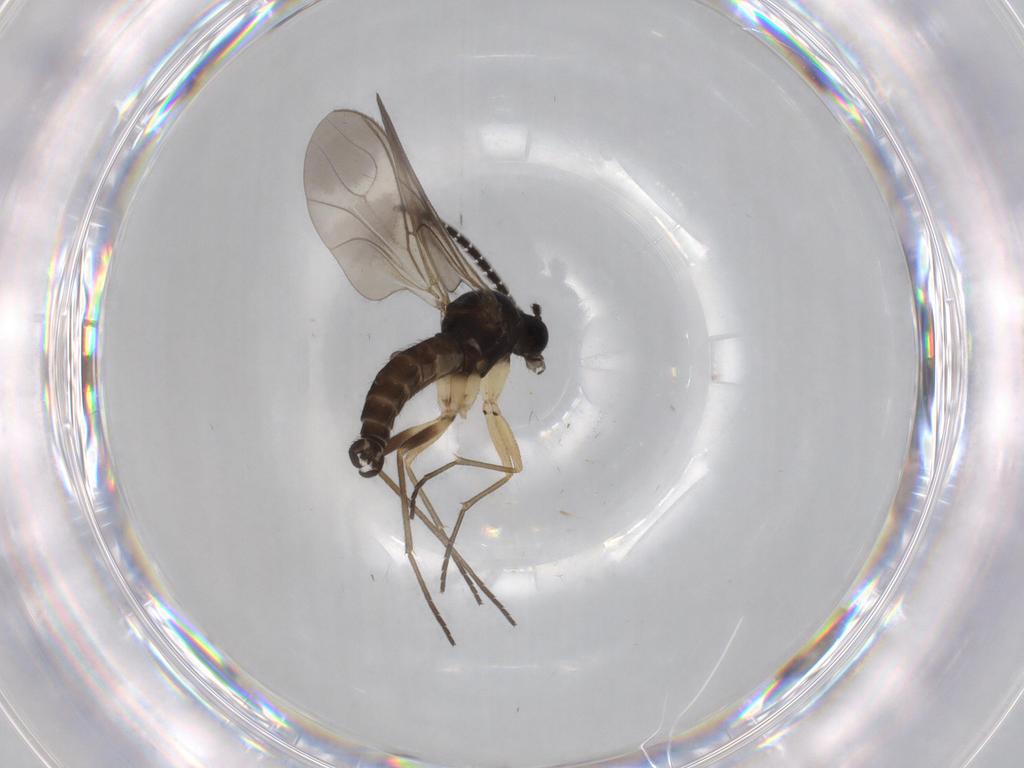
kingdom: Animalia
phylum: Arthropoda
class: Insecta
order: Diptera
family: Sciaridae
